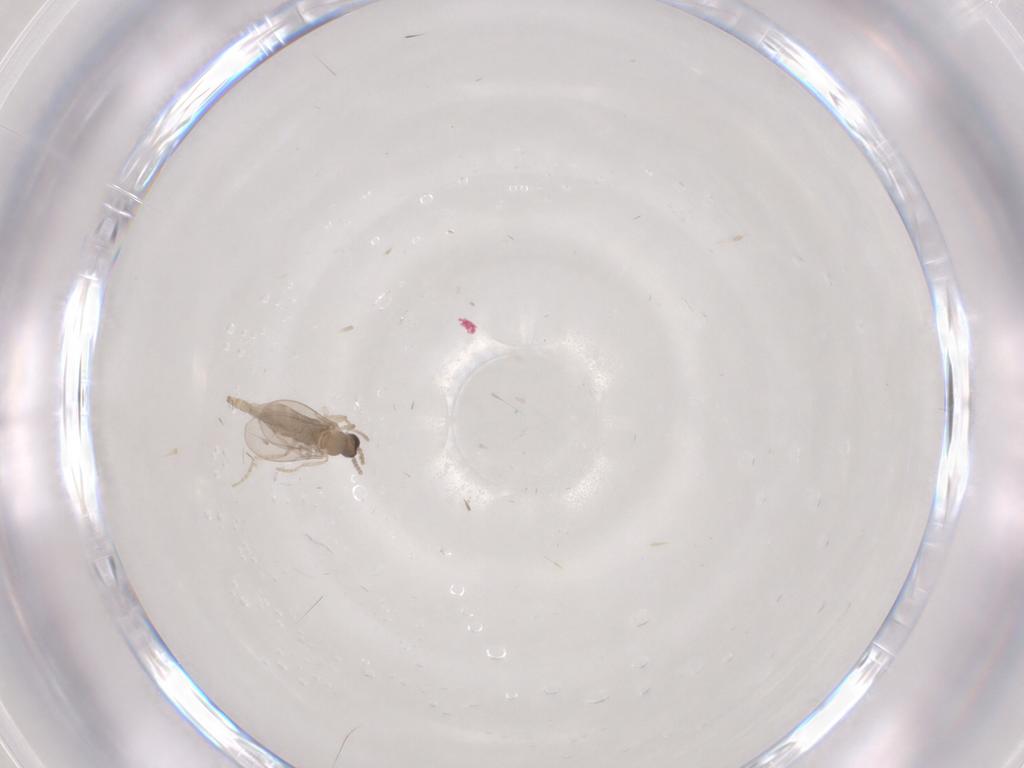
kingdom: Animalia
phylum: Arthropoda
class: Insecta
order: Diptera
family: Cecidomyiidae
